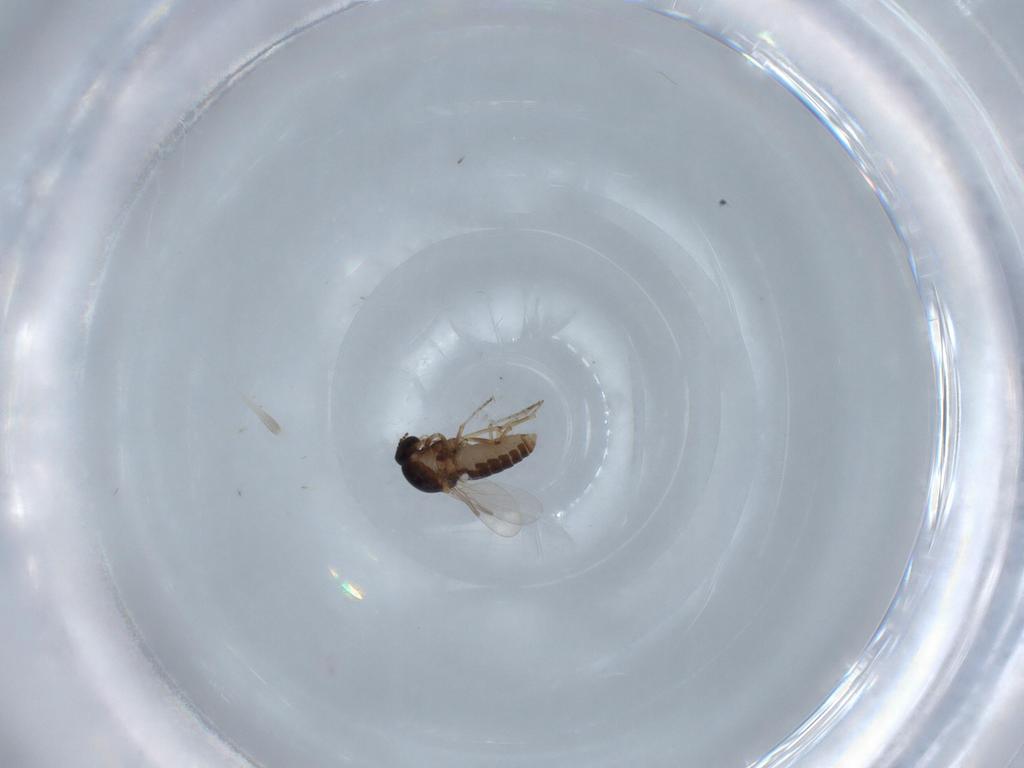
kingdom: Animalia
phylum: Arthropoda
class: Insecta
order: Diptera
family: Ceratopogonidae
